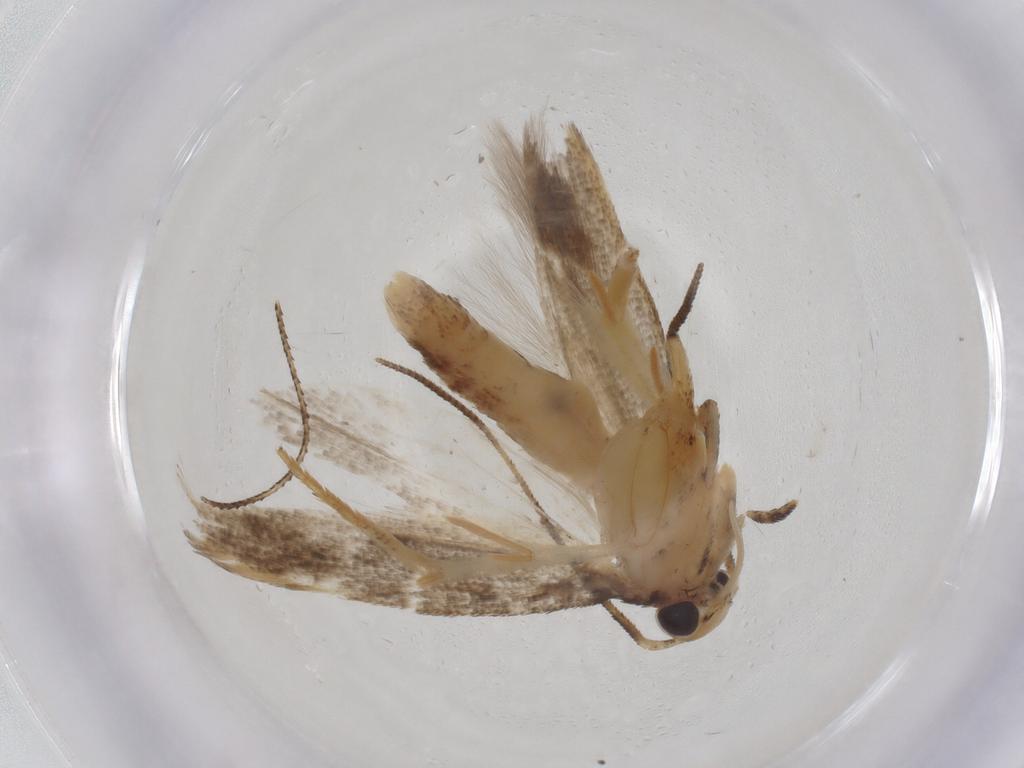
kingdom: Animalia
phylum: Arthropoda
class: Insecta
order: Lepidoptera
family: Gelechiidae
